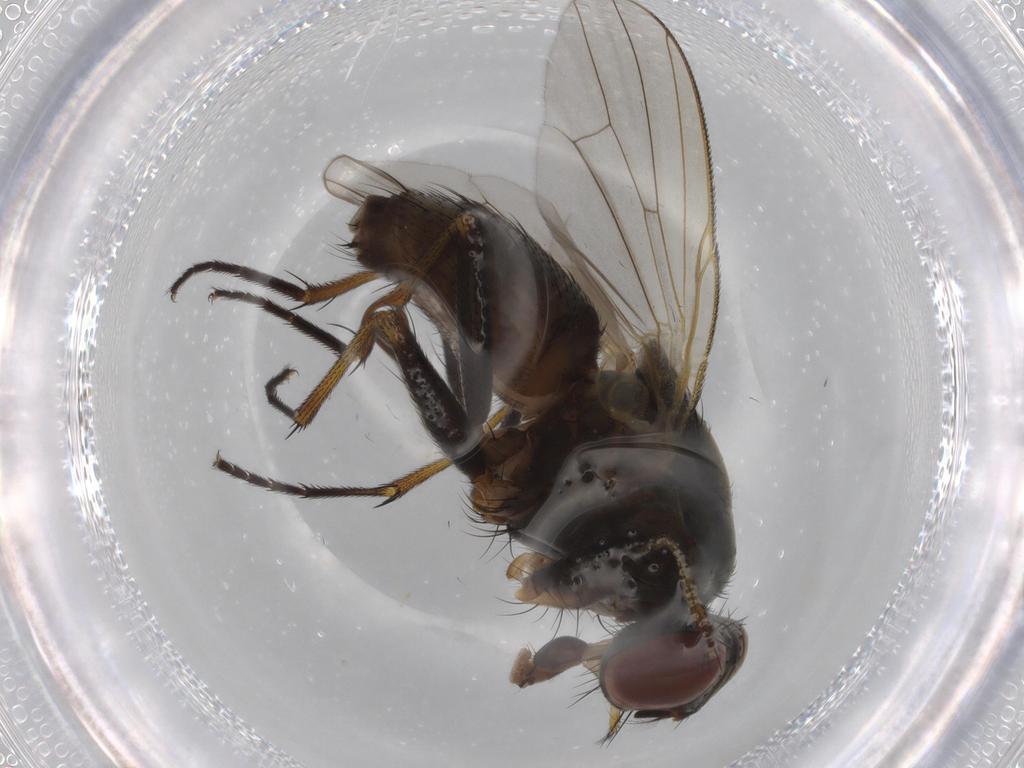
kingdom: Animalia
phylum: Arthropoda
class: Insecta
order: Diptera
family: Muscidae
